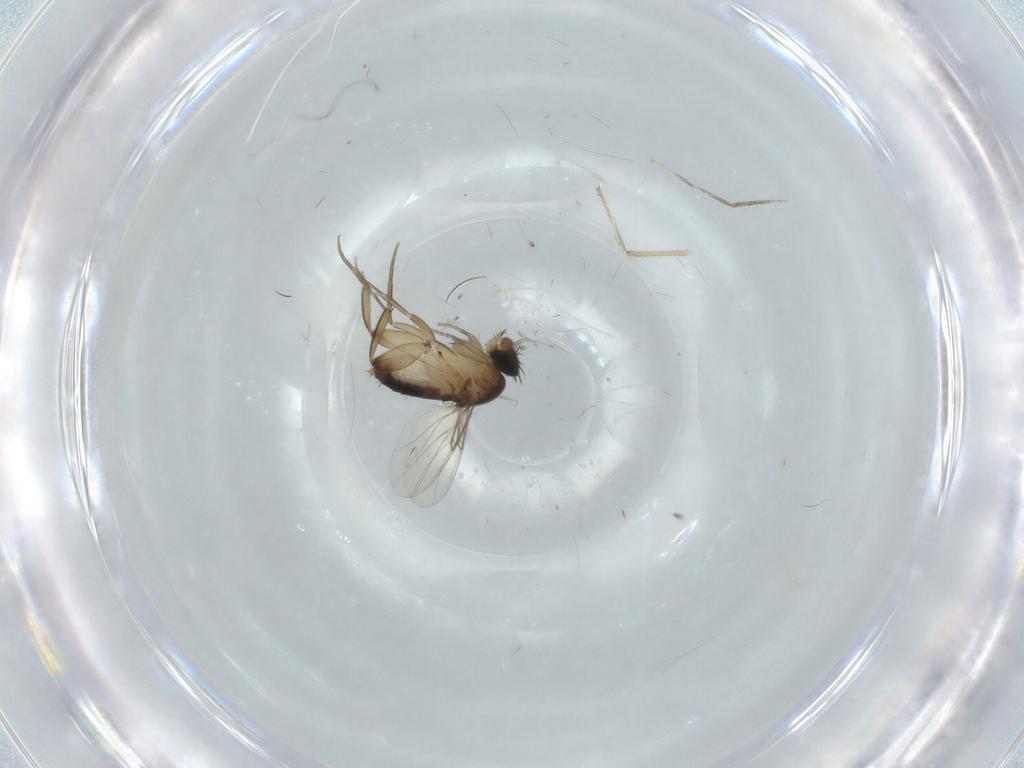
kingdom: Animalia
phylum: Arthropoda
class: Insecta
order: Diptera
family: Phoridae
